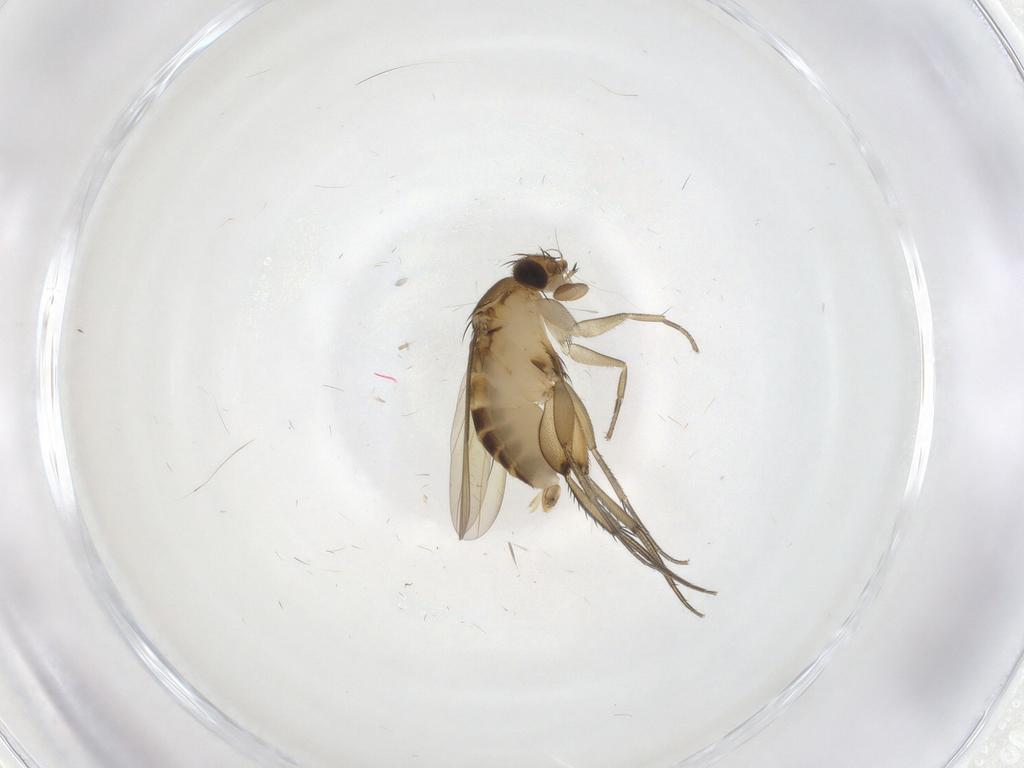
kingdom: Animalia
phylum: Arthropoda
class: Insecta
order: Diptera
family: Phoridae
